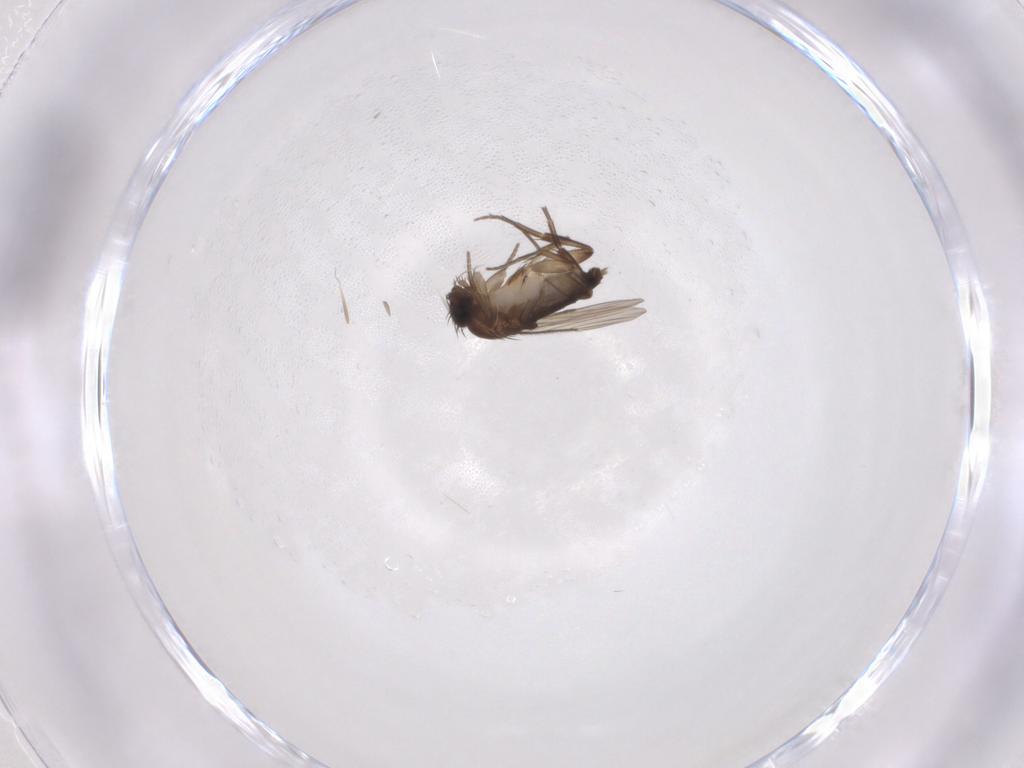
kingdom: Animalia
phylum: Arthropoda
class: Insecta
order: Diptera
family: Phoridae
